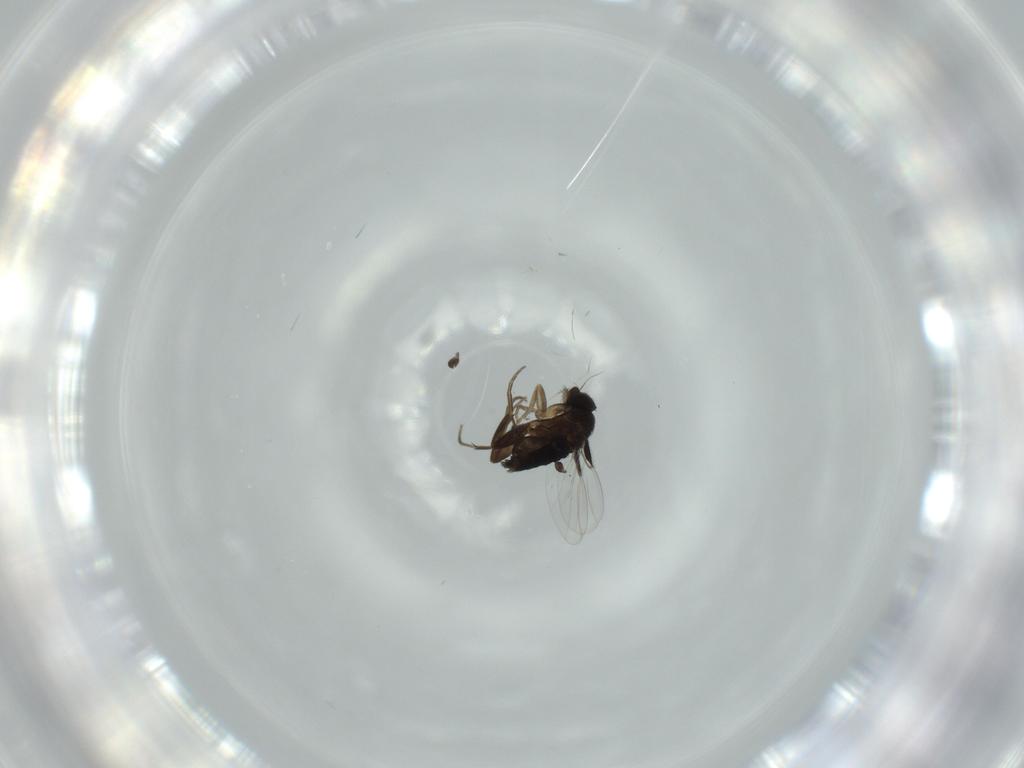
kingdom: Animalia
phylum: Arthropoda
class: Insecta
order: Diptera
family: Phoridae
